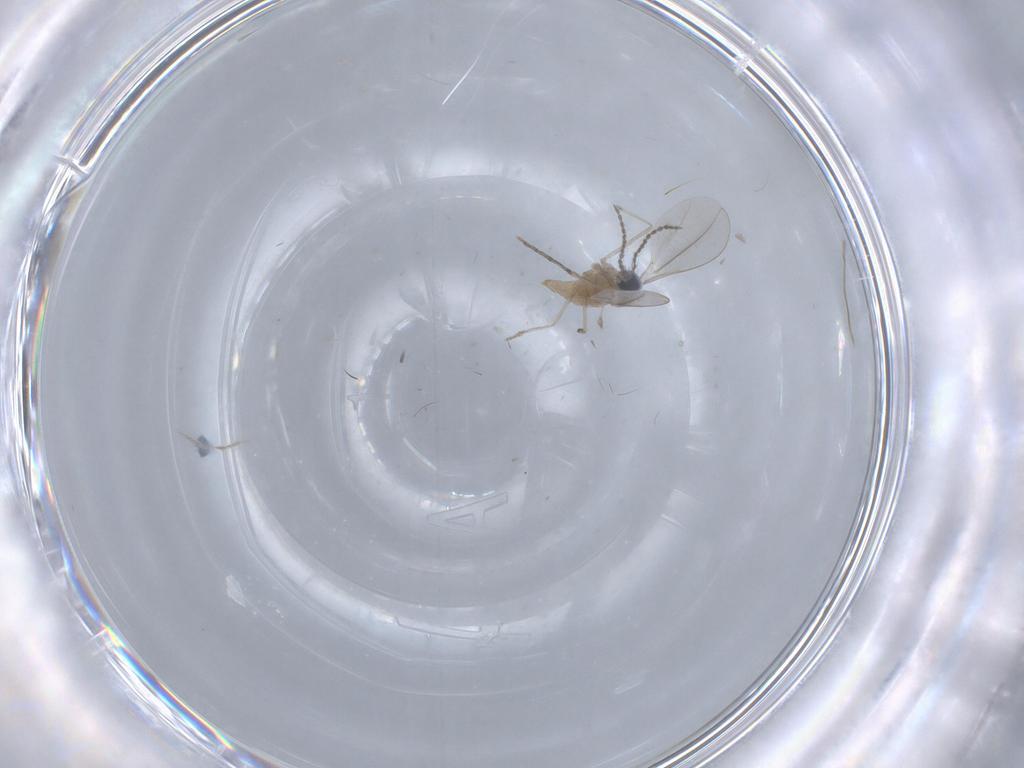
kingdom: Animalia
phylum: Arthropoda
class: Insecta
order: Diptera
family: Cecidomyiidae
